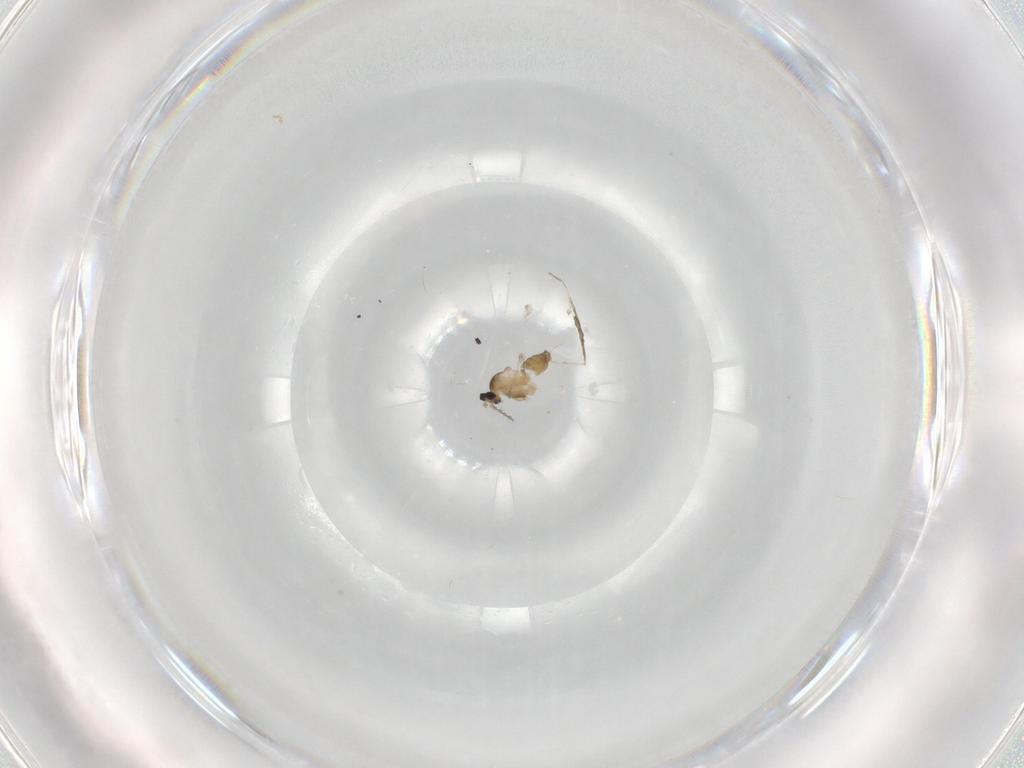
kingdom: Animalia
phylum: Arthropoda
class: Insecta
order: Diptera
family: Cecidomyiidae
